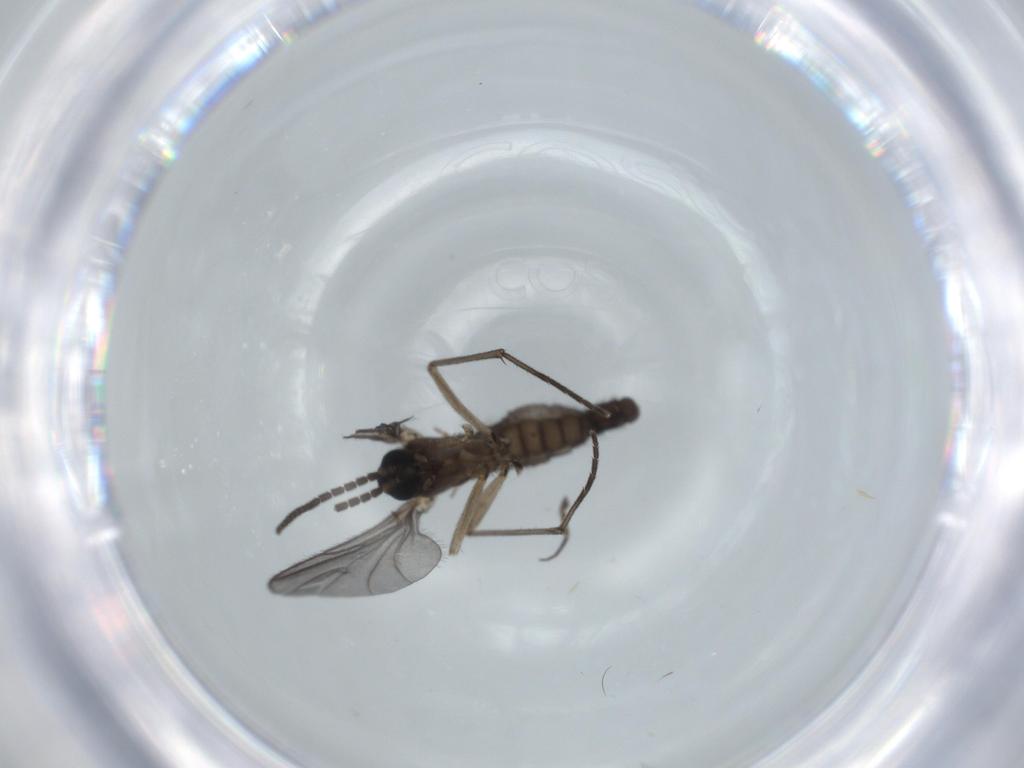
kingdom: Animalia
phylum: Arthropoda
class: Insecta
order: Diptera
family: Sciaridae
